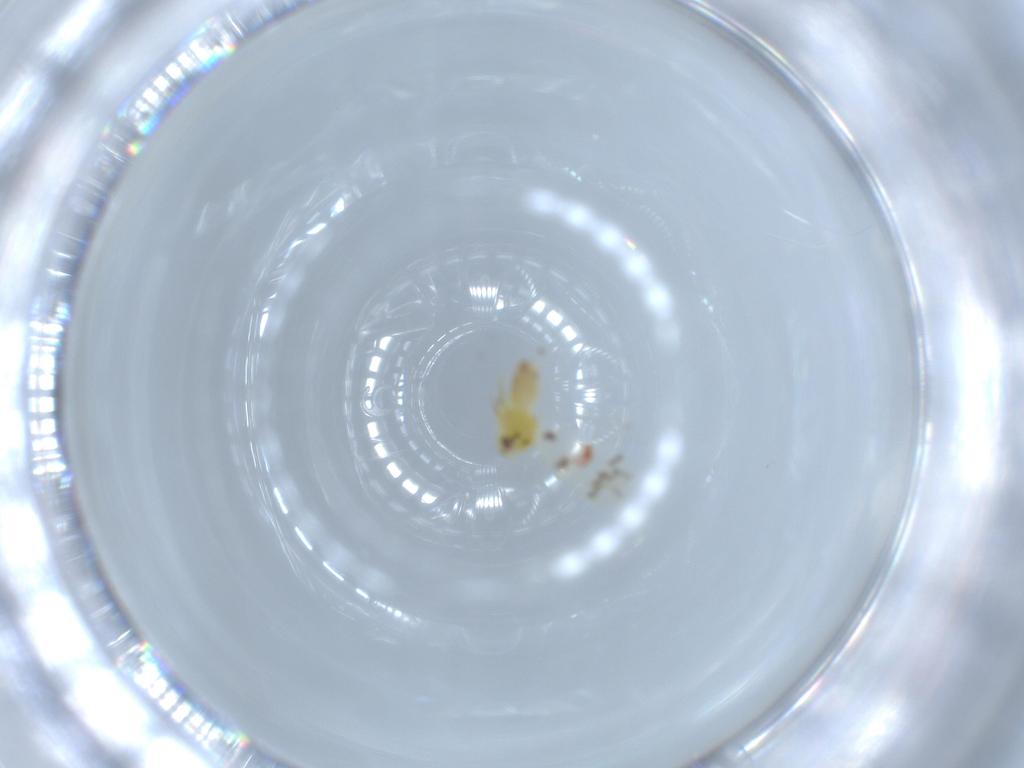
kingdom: Animalia
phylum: Arthropoda
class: Insecta
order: Hemiptera
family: Aleyrodidae
